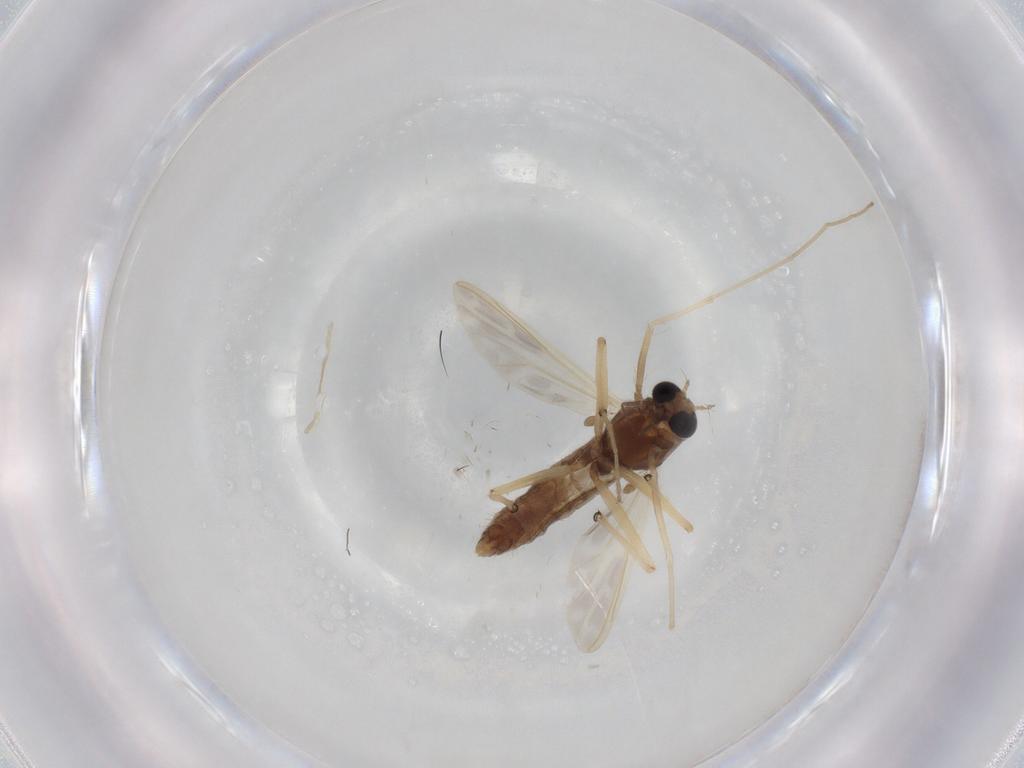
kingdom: Animalia
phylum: Arthropoda
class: Insecta
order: Diptera
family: Chironomidae
